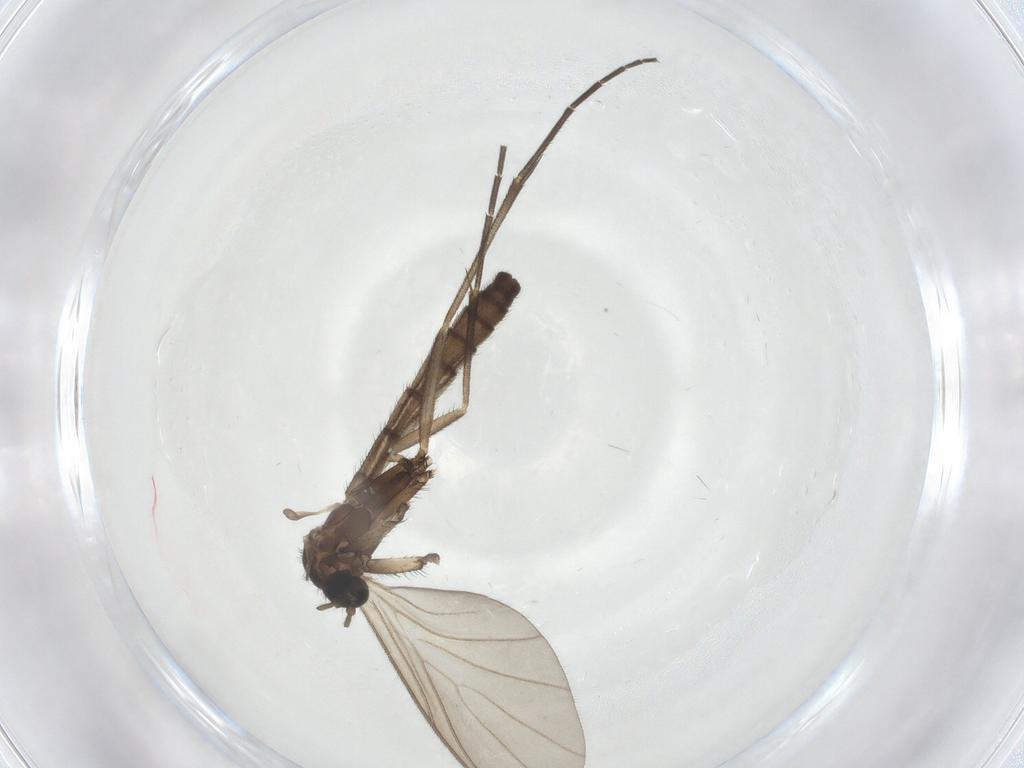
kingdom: Animalia
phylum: Arthropoda
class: Insecta
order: Diptera
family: Keroplatidae
